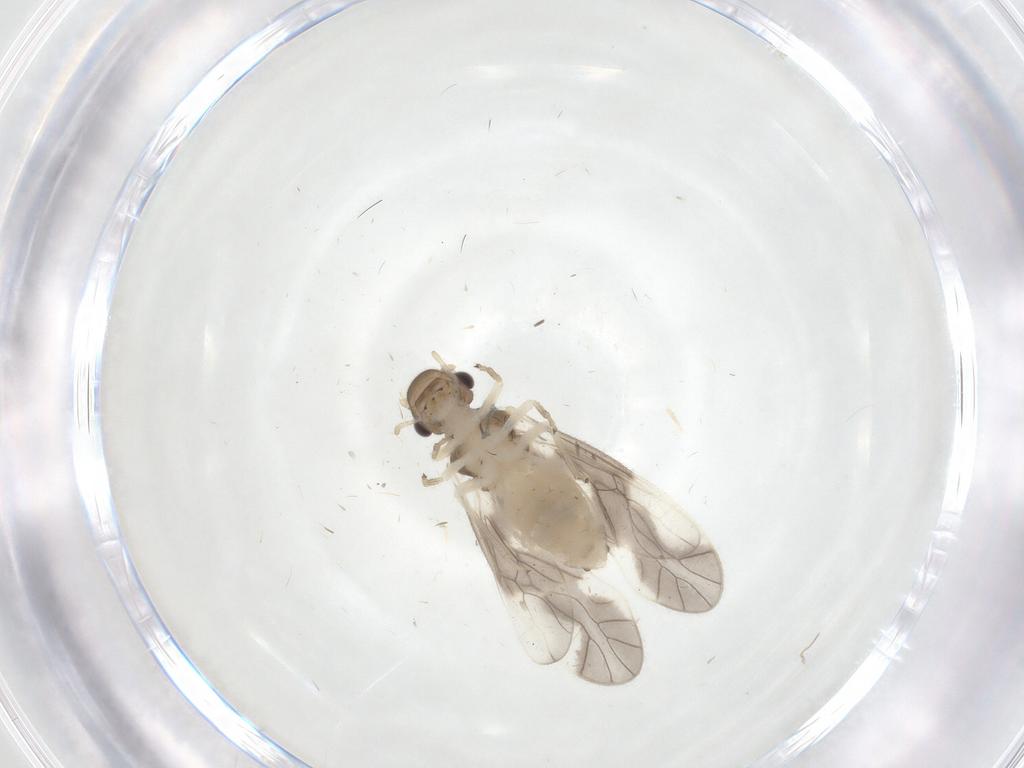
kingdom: Animalia
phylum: Arthropoda
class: Insecta
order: Psocodea
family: Caeciliusidae
